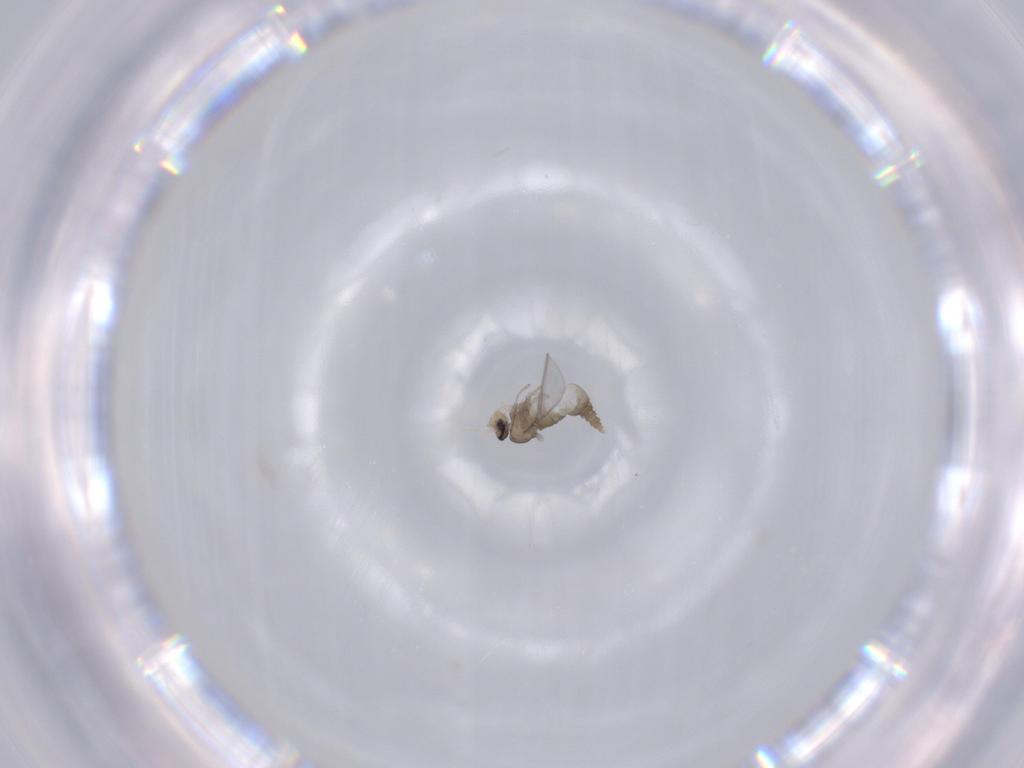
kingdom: Animalia
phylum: Arthropoda
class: Insecta
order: Diptera
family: Cecidomyiidae
